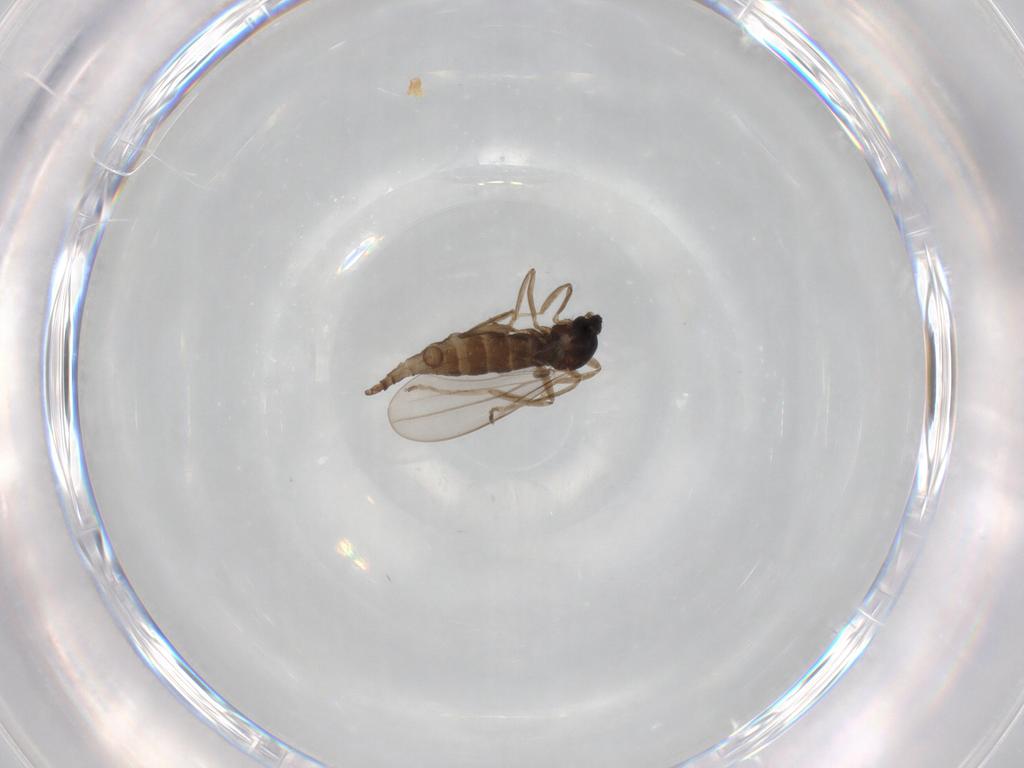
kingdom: Animalia
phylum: Arthropoda
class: Insecta
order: Diptera
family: Cecidomyiidae
